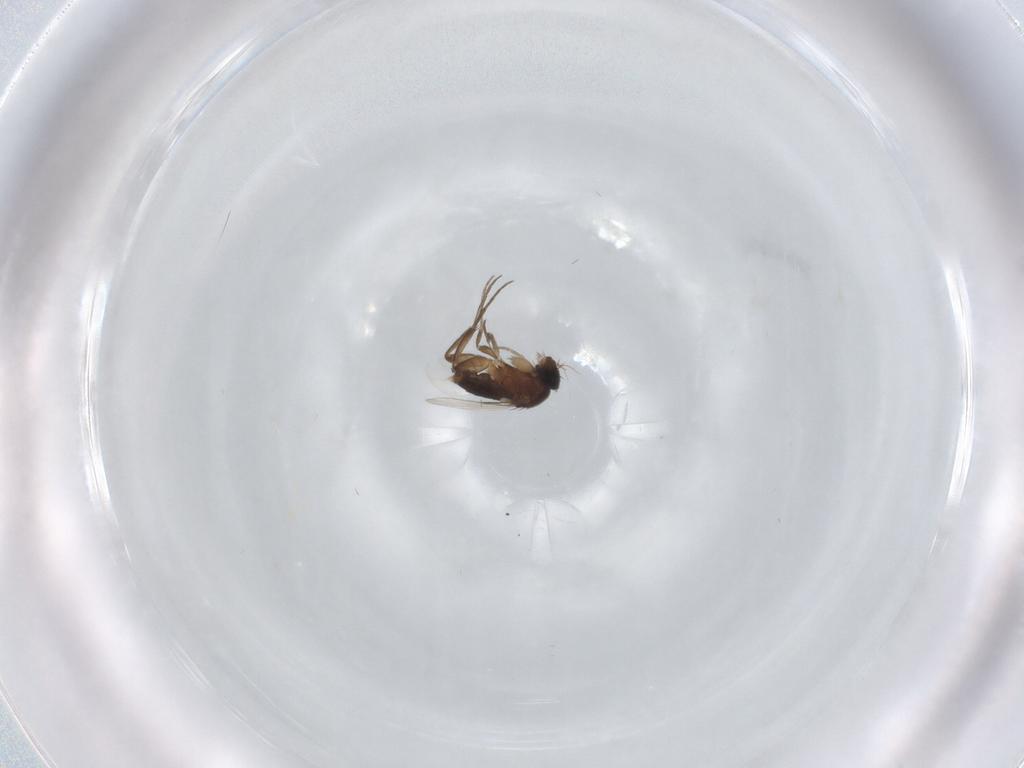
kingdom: Animalia
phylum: Arthropoda
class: Insecta
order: Diptera
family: Phoridae
